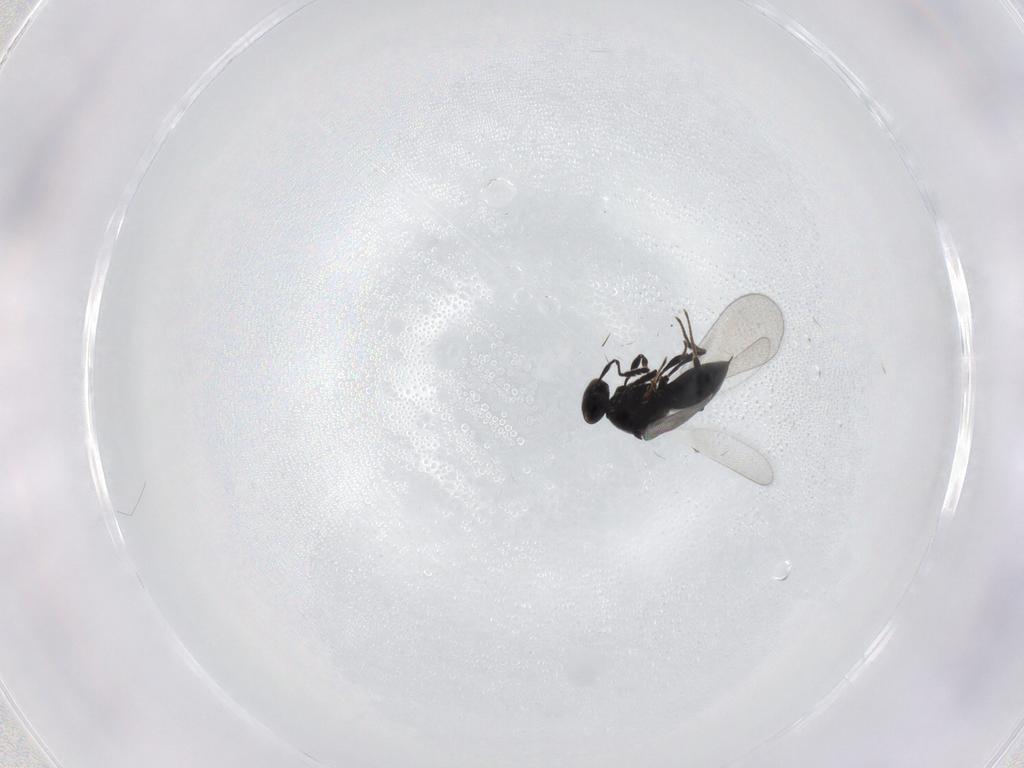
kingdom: Animalia
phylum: Arthropoda
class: Insecta
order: Hymenoptera
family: Platygastridae
